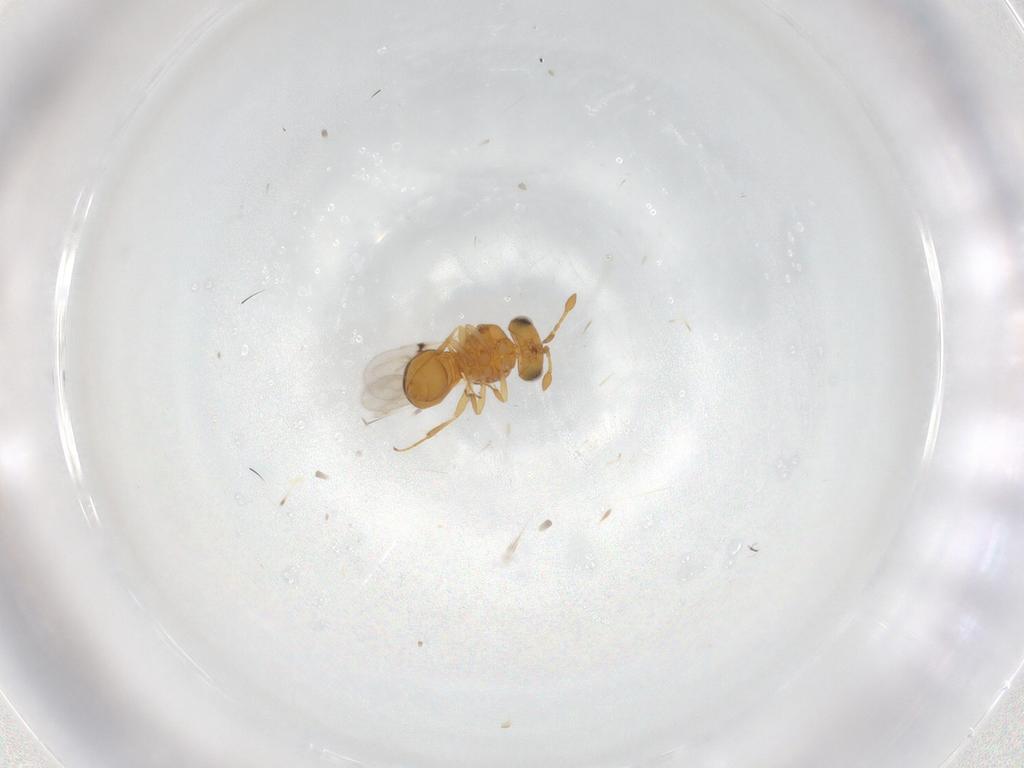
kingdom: Animalia
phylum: Arthropoda
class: Insecta
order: Hymenoptera
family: Scelionidae
